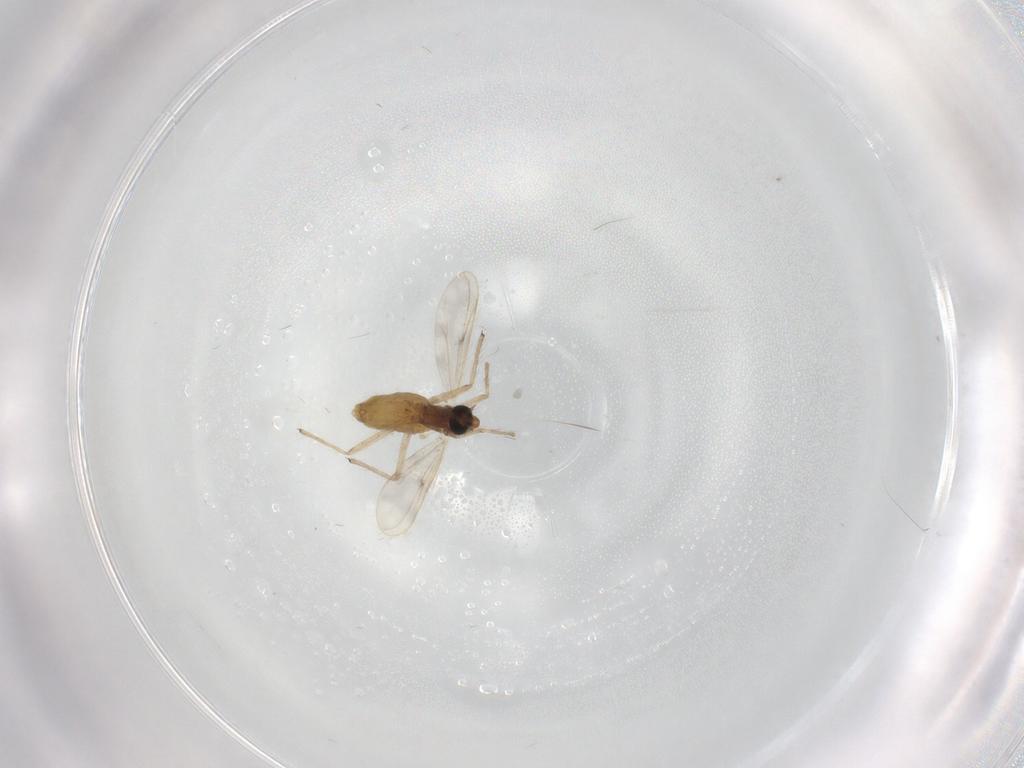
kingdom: Animalia
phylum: Arthropoda
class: Insecta
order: Diptera
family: Chironomidae
